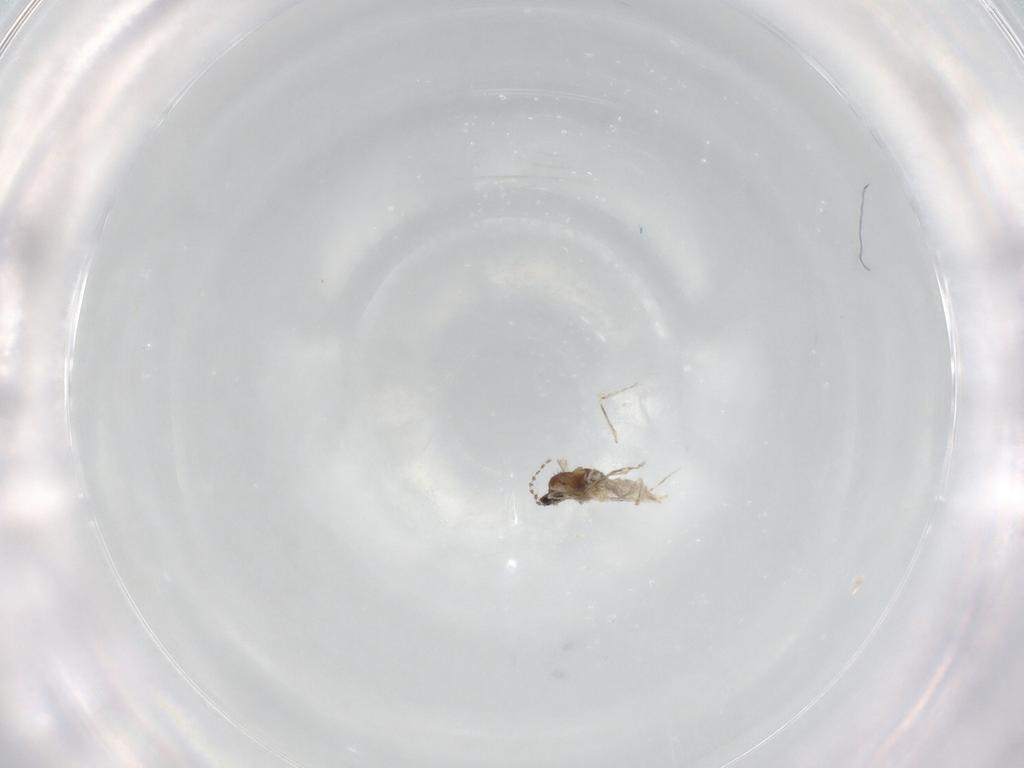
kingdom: Animalia
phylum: Arthropoda
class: Insecta
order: Diptera
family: Cecidomyiidae
